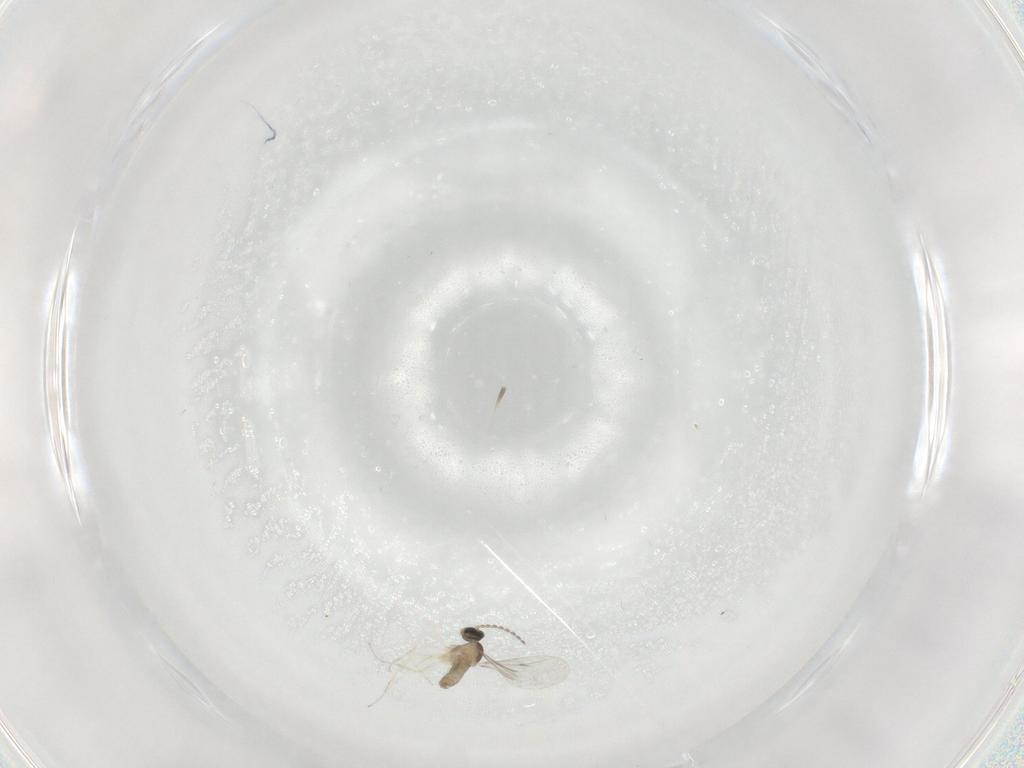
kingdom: Animalia
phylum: Arthropoda
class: Insecta
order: Diptera
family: Cecidomyiidae
